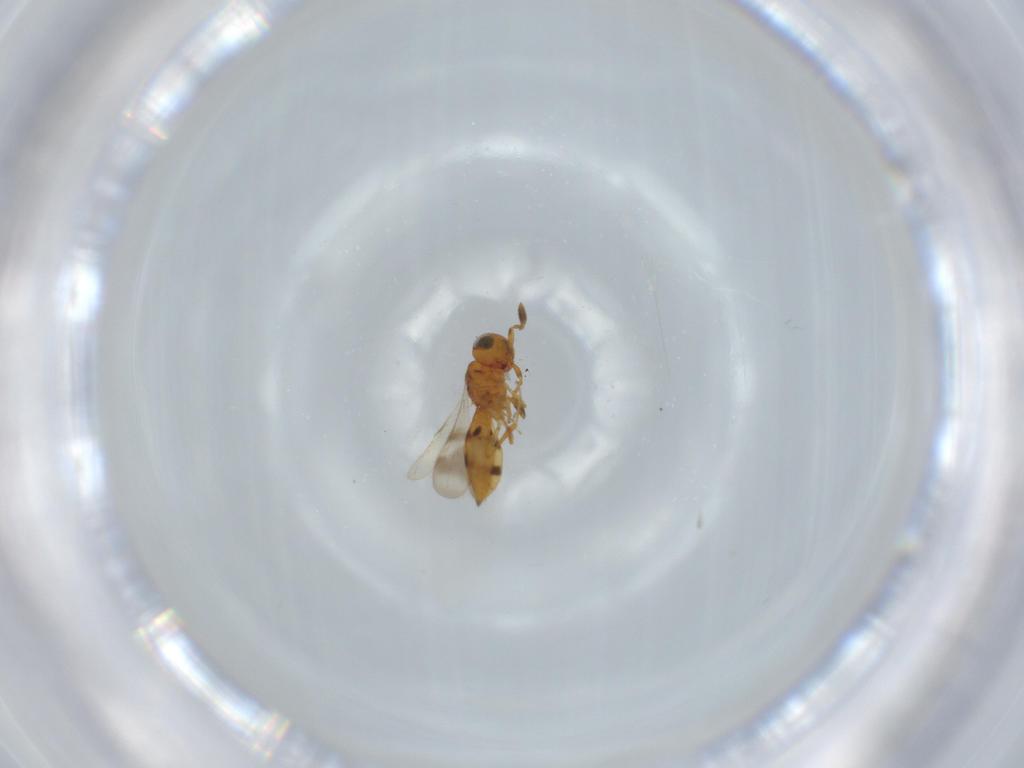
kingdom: Animalia
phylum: Arthropoda
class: Insecta
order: Hymenoptera
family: Scelionidae
